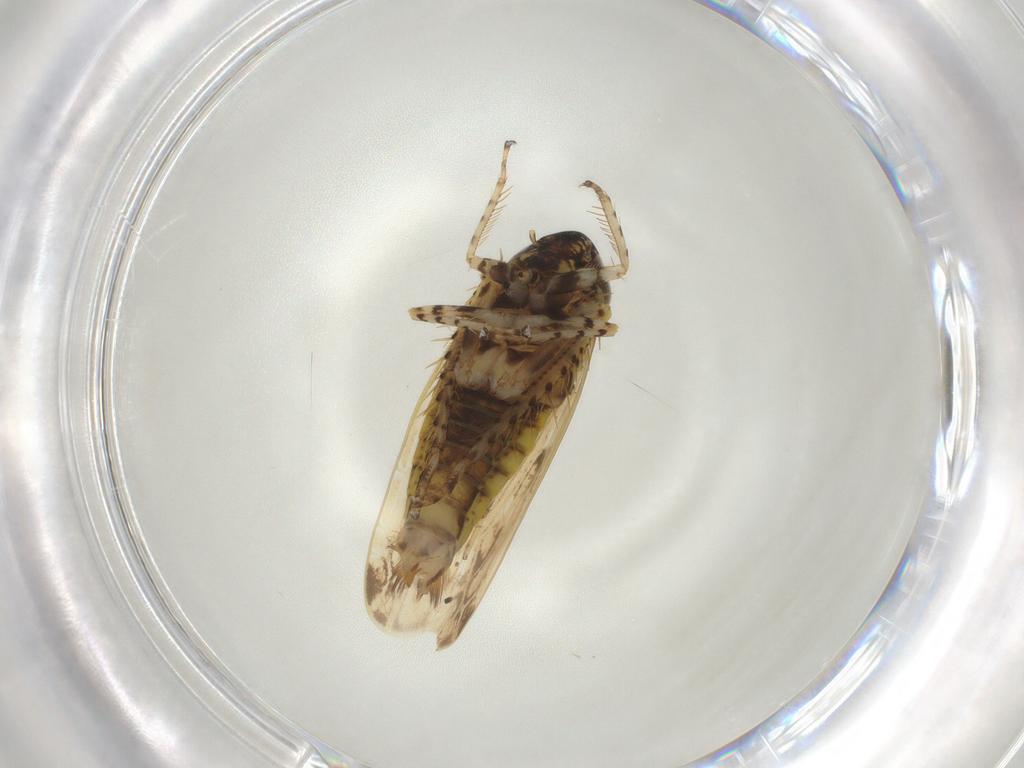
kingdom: Animalia
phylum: Arthropoda
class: Insecta
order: Hemiptera
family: Cicadellidae
